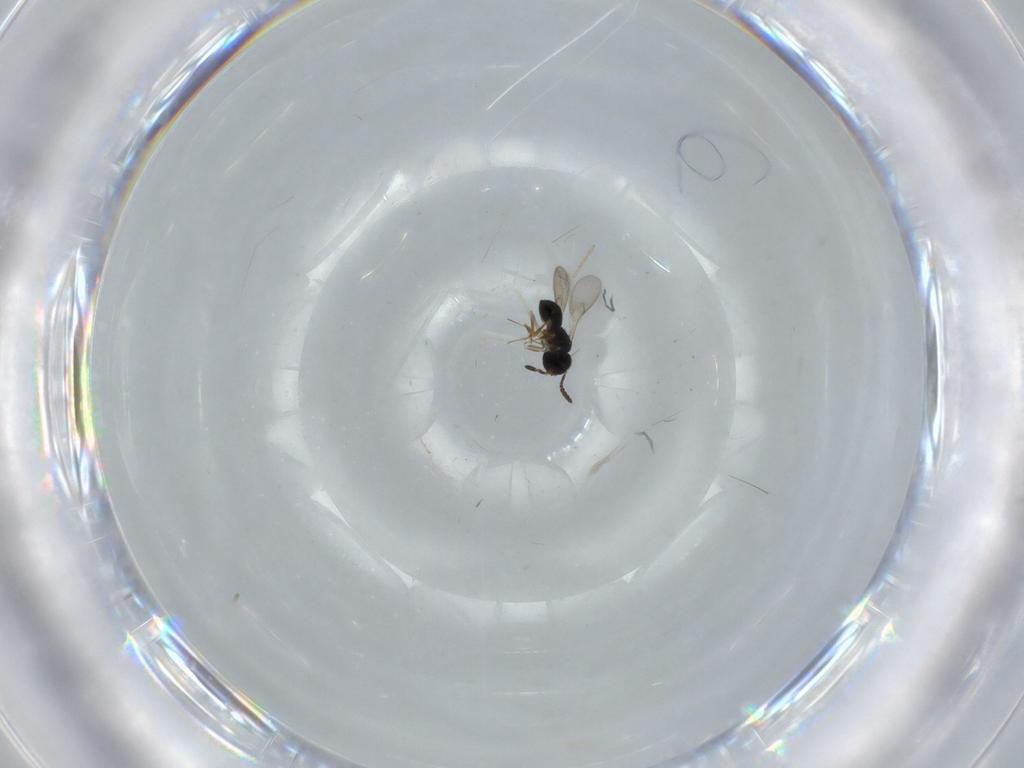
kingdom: Animalia
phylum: Arthropoda
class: Insecta
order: Hymenoptera
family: Scelionidae
